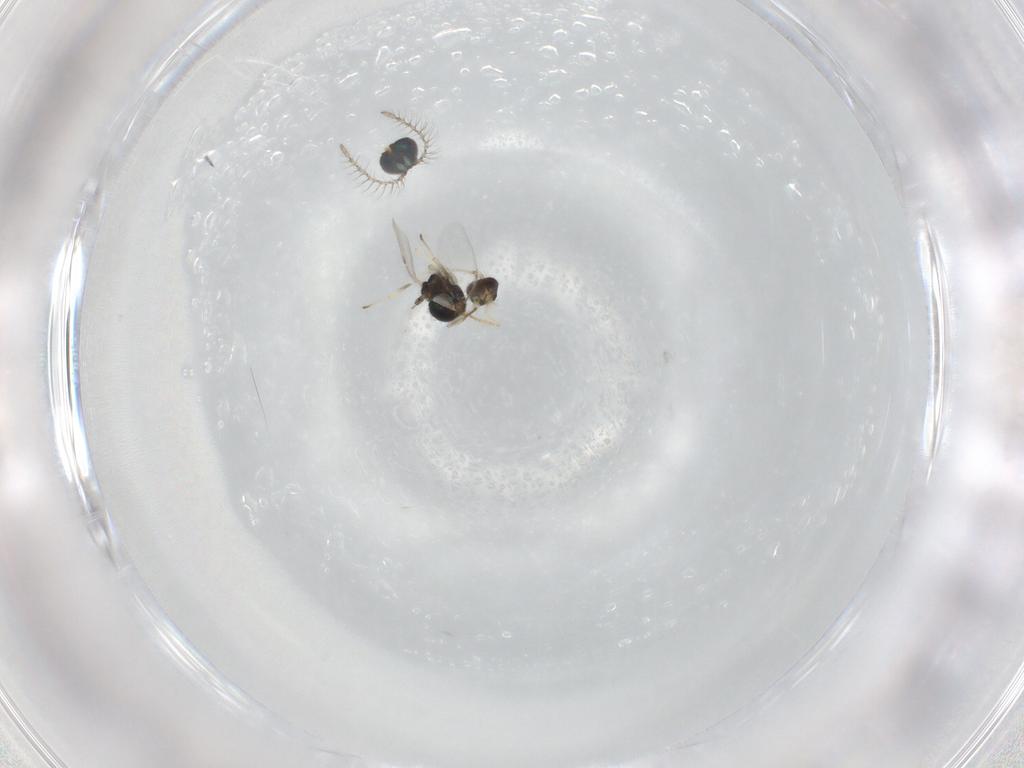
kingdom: Animalia
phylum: Arthropoda
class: Insecta
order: Hymenoptera
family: Encyrtidae
